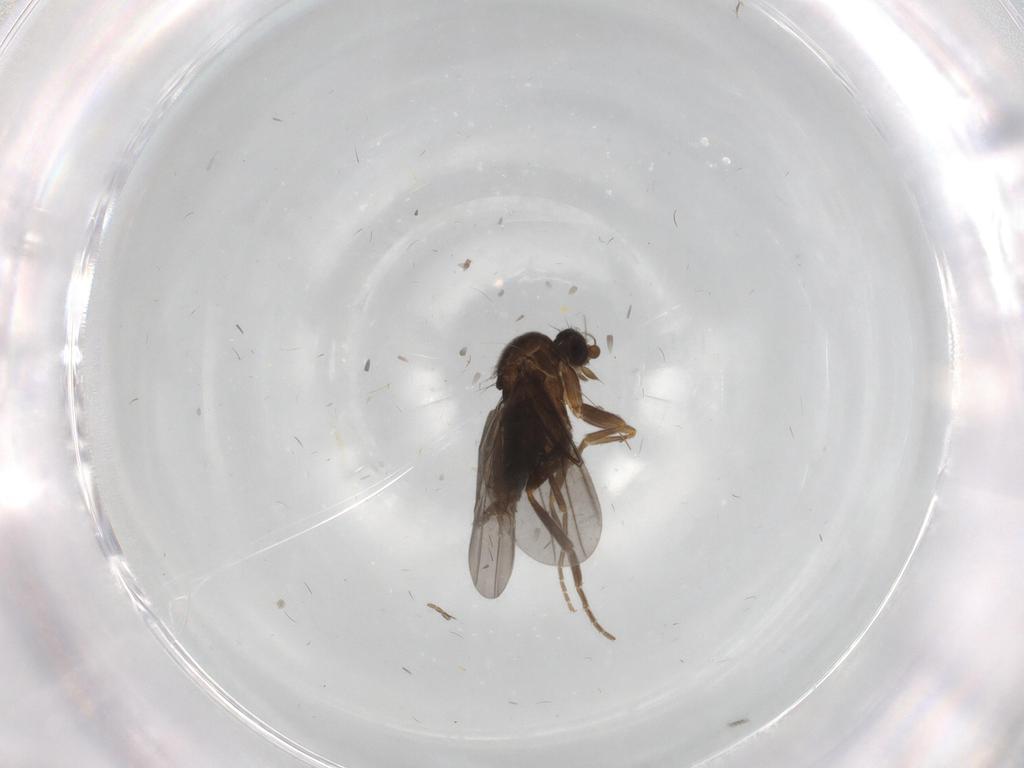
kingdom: Animalia
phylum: Arthropoda
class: Insecta
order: Diptera
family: Phoridae
